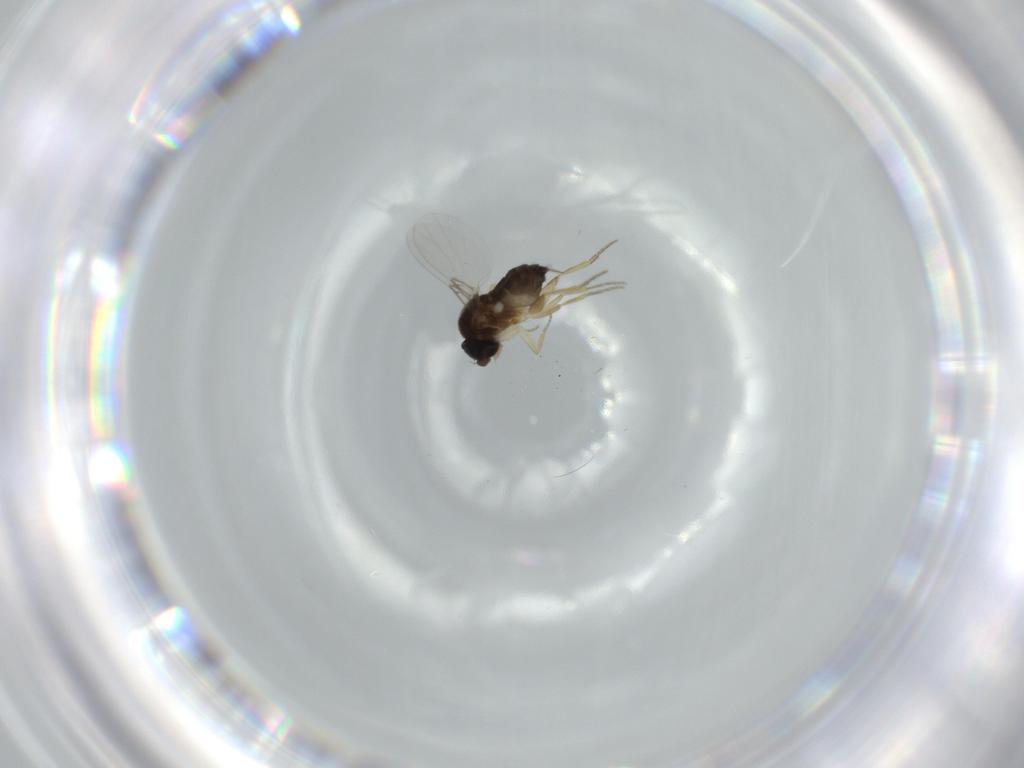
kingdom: Animalia
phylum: Arthropoda
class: Insecta
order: Diptera
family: Phoridae
